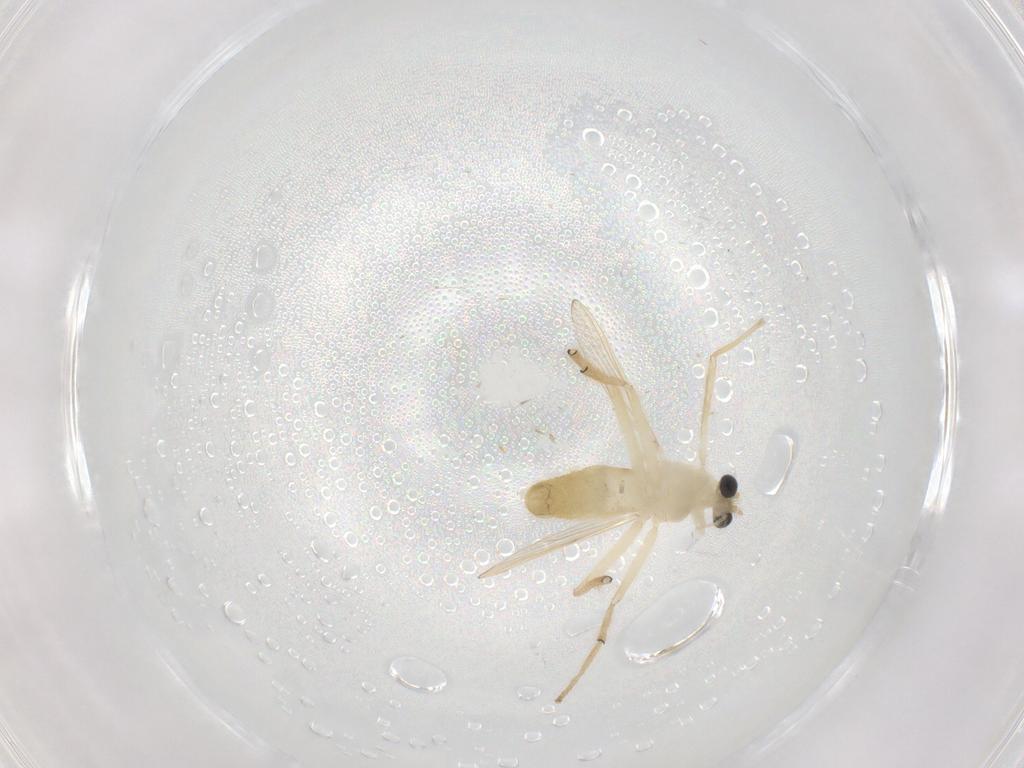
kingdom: Animalia
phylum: Arthropoda
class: Insecta
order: Diptera
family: Chironomidae
